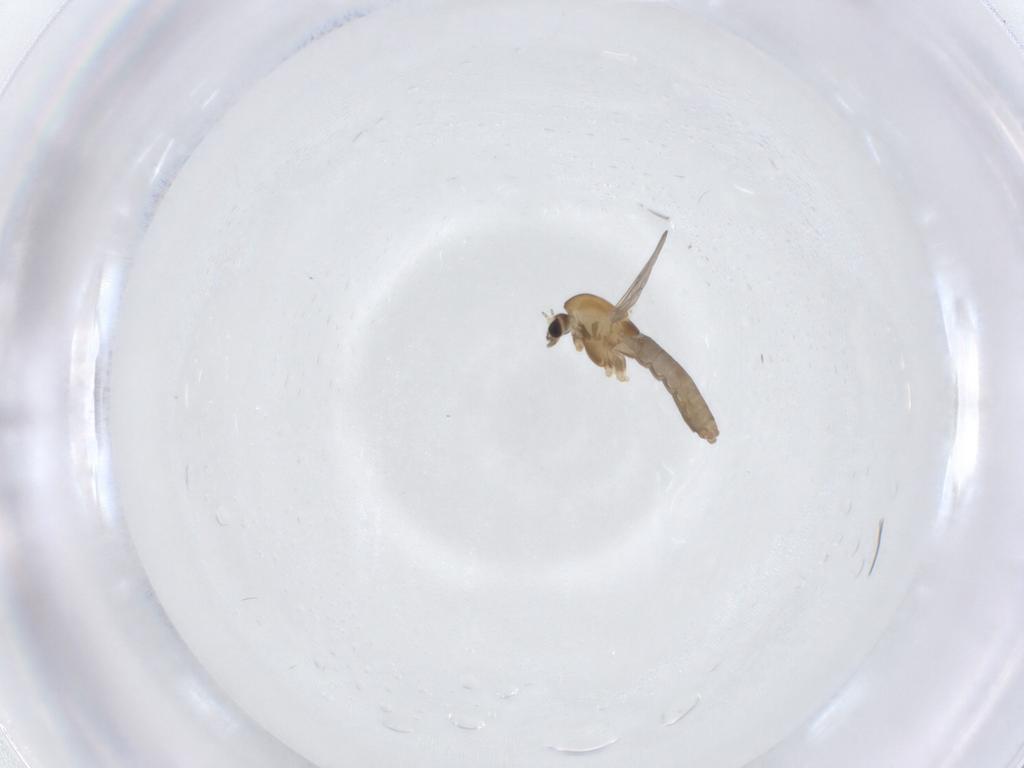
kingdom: Animalia
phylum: Arthropoda
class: Insecta
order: Diptera
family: Chironomidae
